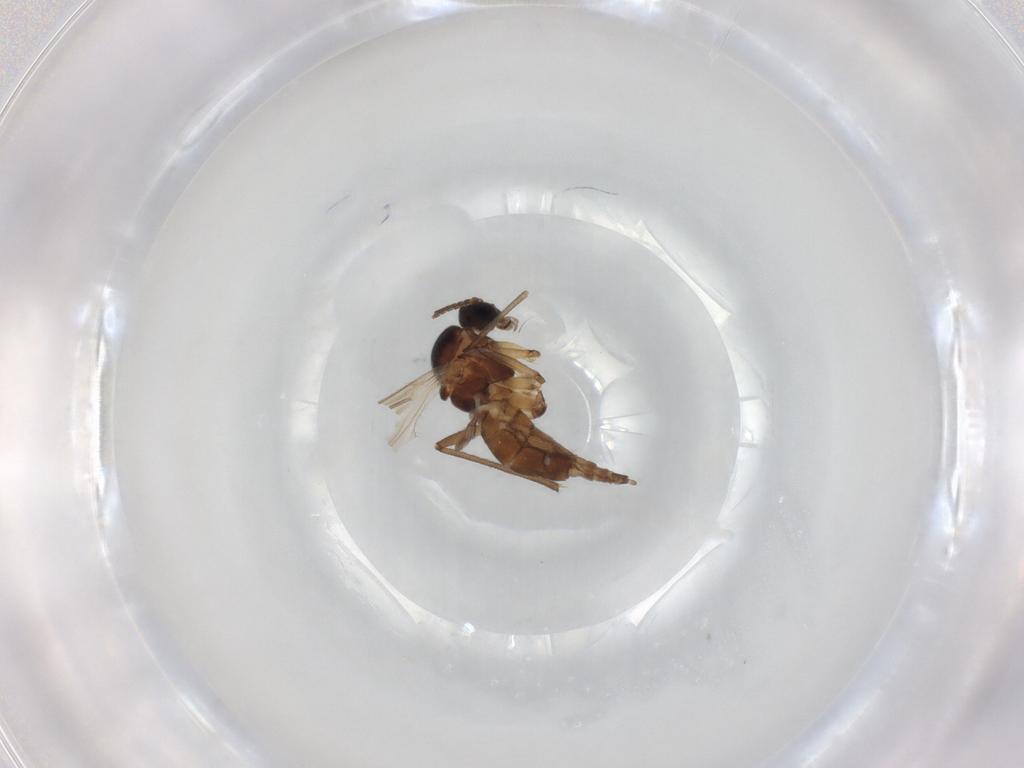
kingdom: Animalia
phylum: Arthropoda
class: Insecta
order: Diptera
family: Sciaridae
